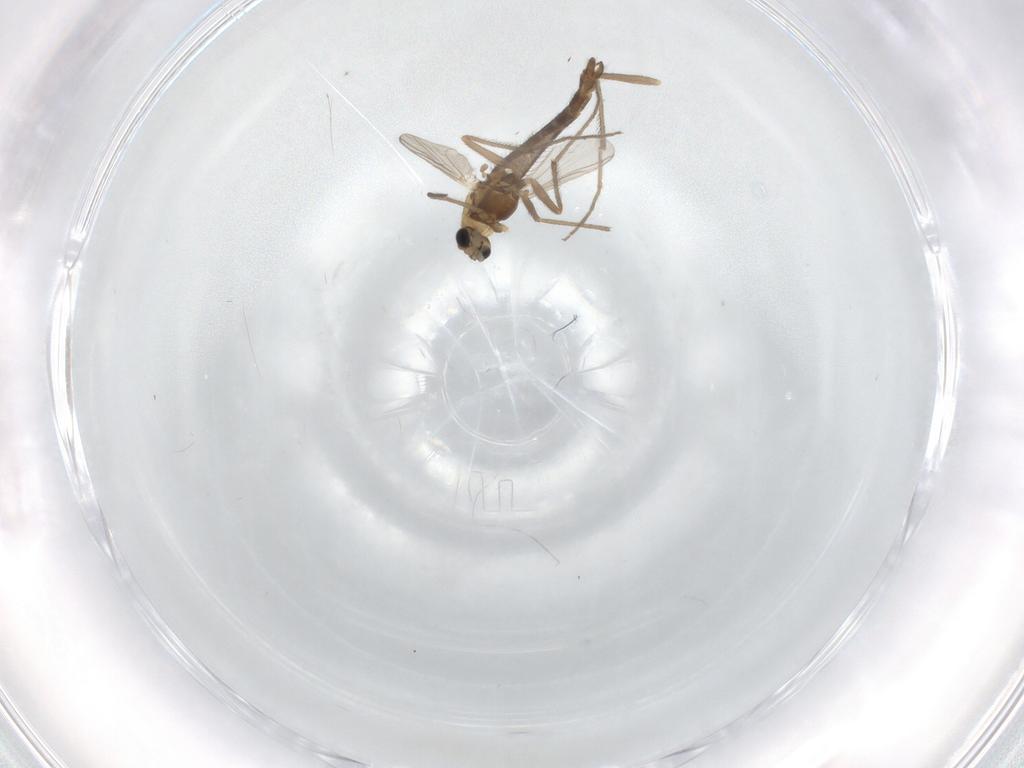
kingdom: Animalia
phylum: Arthropoda
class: Insecta
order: Diptera
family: Chironomidae
